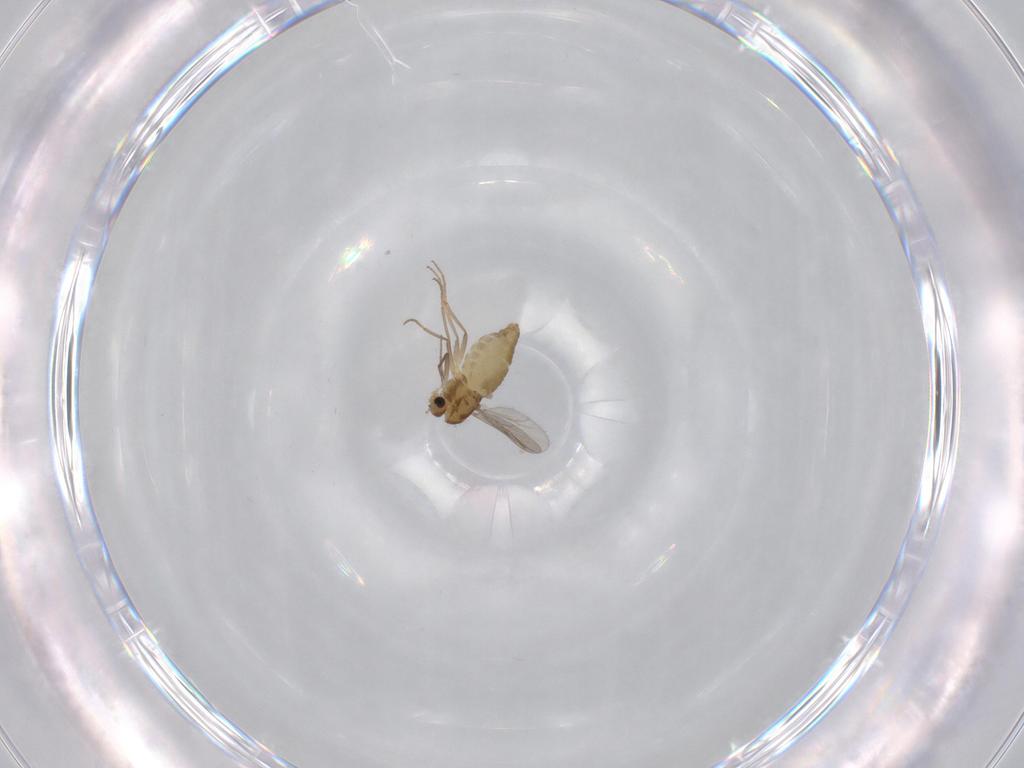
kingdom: Animalia
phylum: Arthropoda
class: Insecta
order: Diptera
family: Chironomidae
